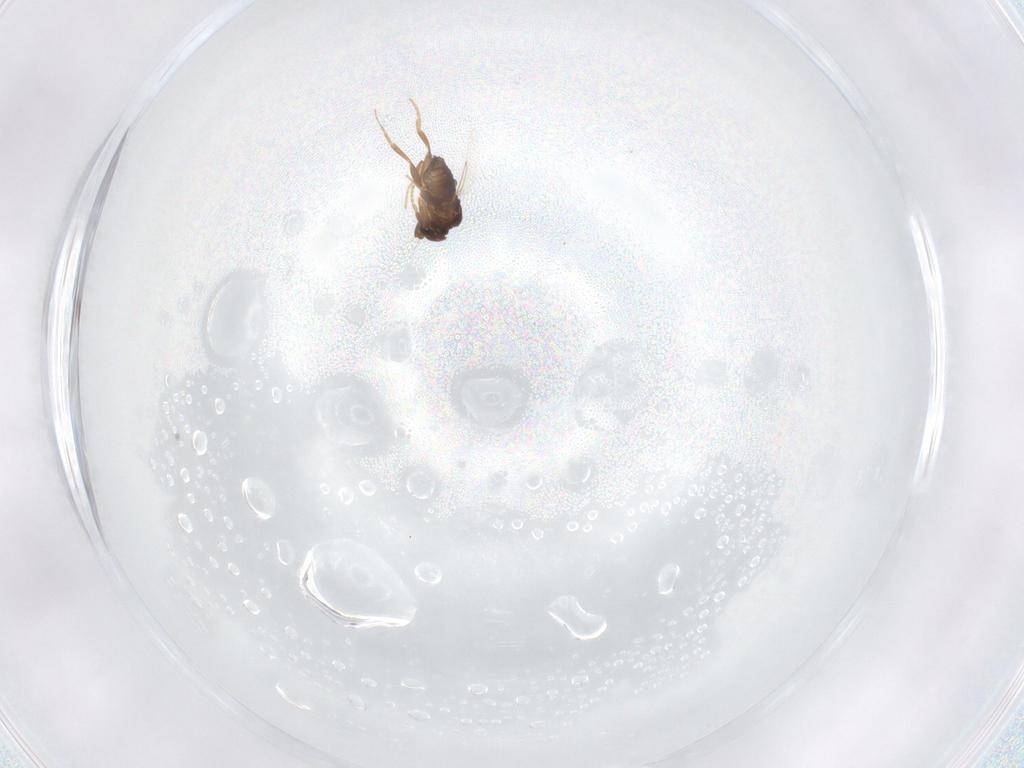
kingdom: Animalia
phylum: Arthropoda
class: Insecta
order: Diptera
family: Phoridae
